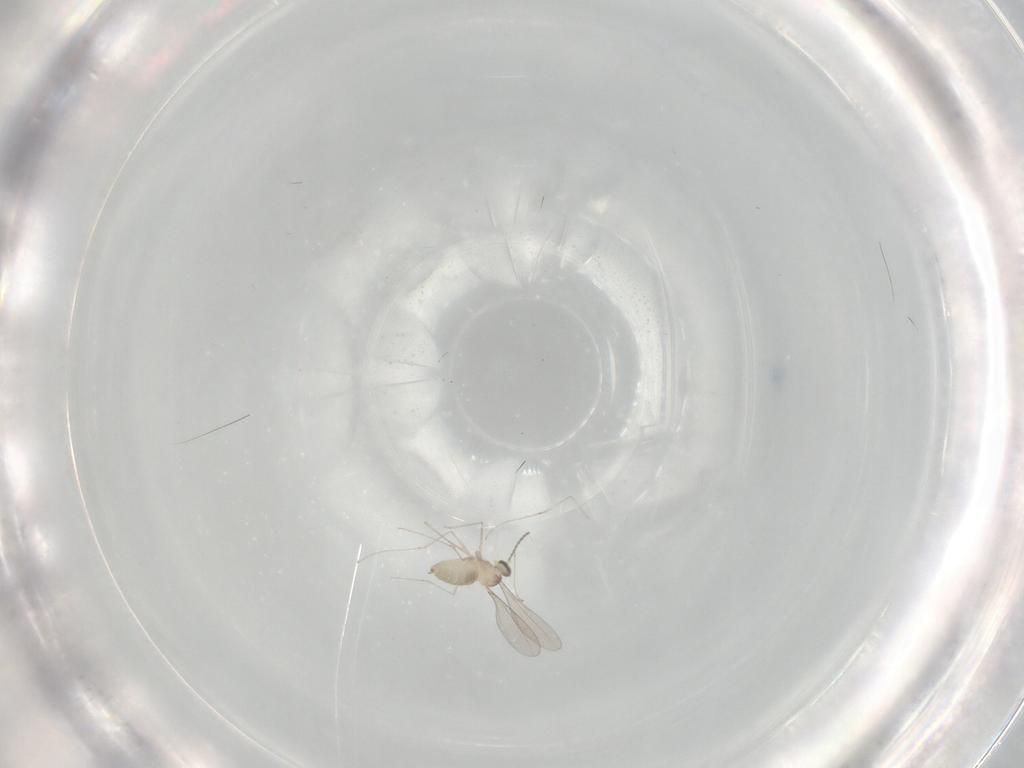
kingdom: Animalia
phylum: Arthropoda
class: Insecta
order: Diptera
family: Cecidomyiidae
